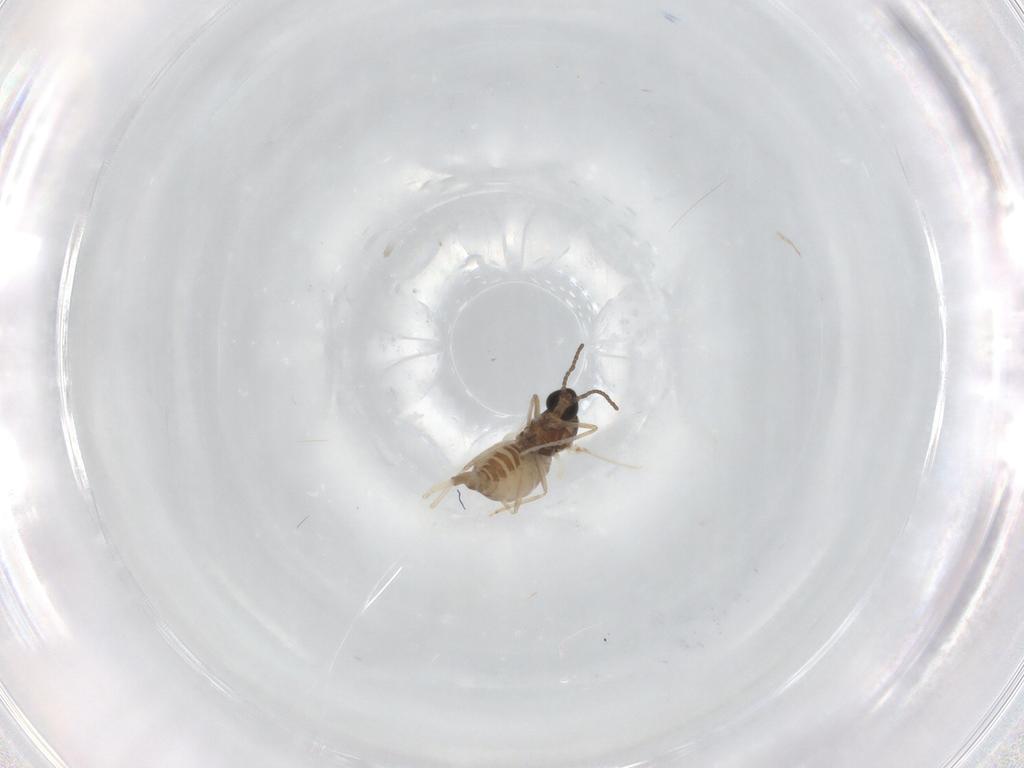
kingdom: Animalia
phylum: Arthropoda
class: Insecta
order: Diptera
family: Cecidomyiidae
